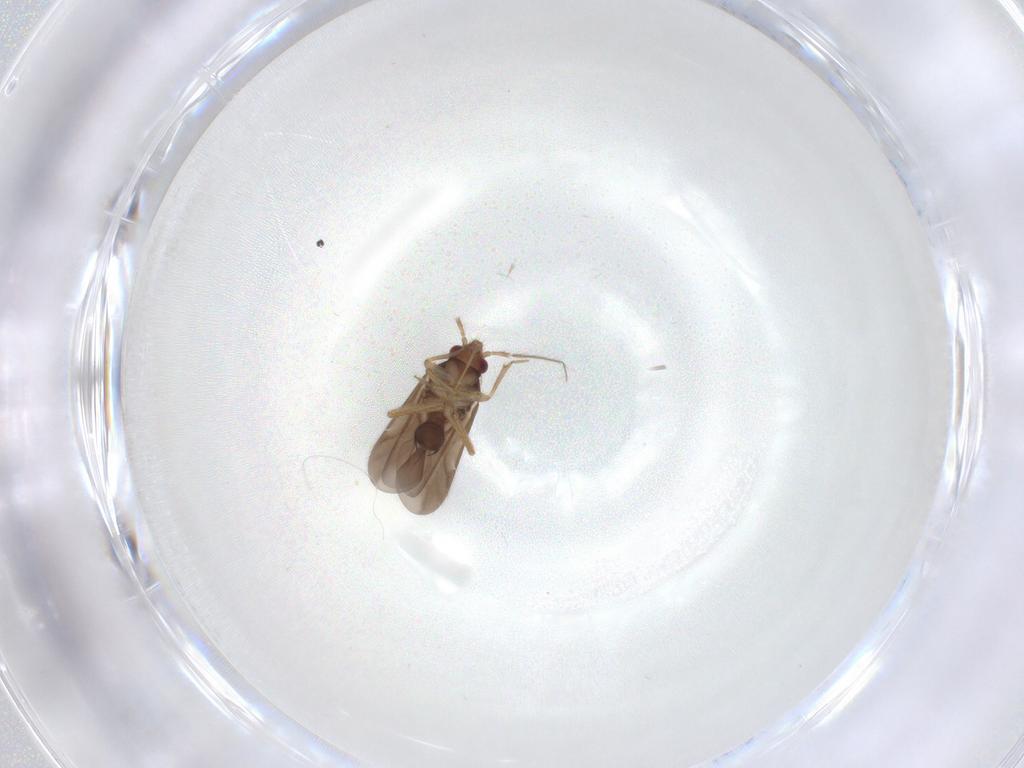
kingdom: Animalia
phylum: Arthropoda
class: Insecta
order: Hemiptera
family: Ceratocombidae
